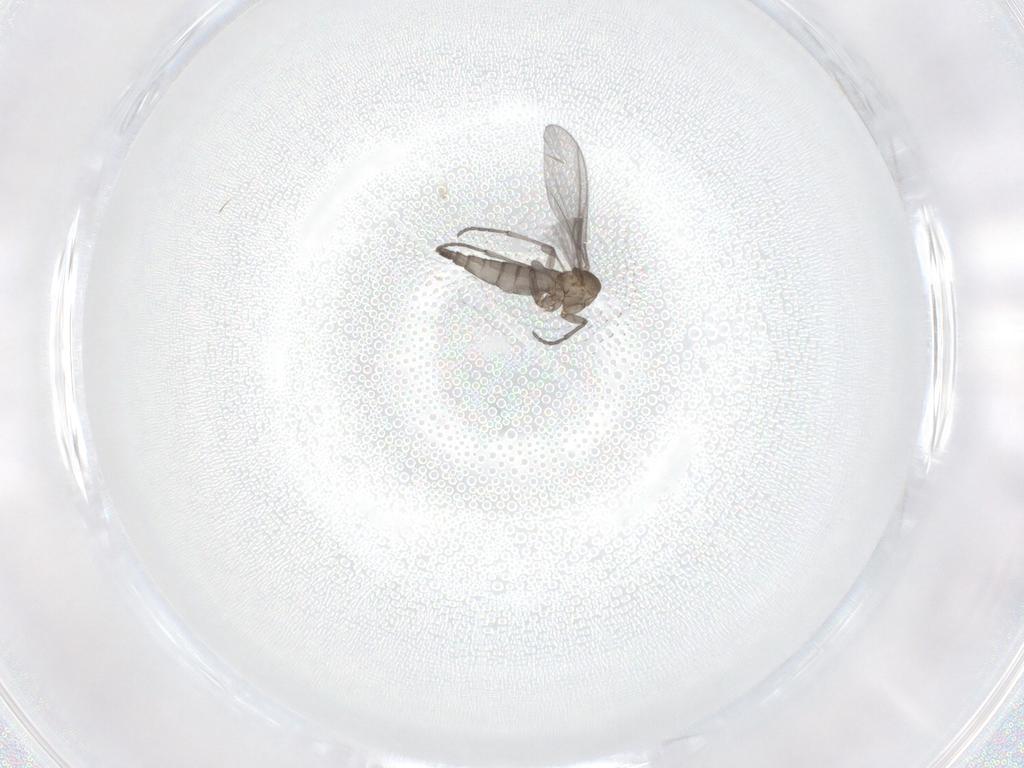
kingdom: Animalia
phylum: Arthropoda
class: Insecta
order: Diptera
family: Sciaridae
